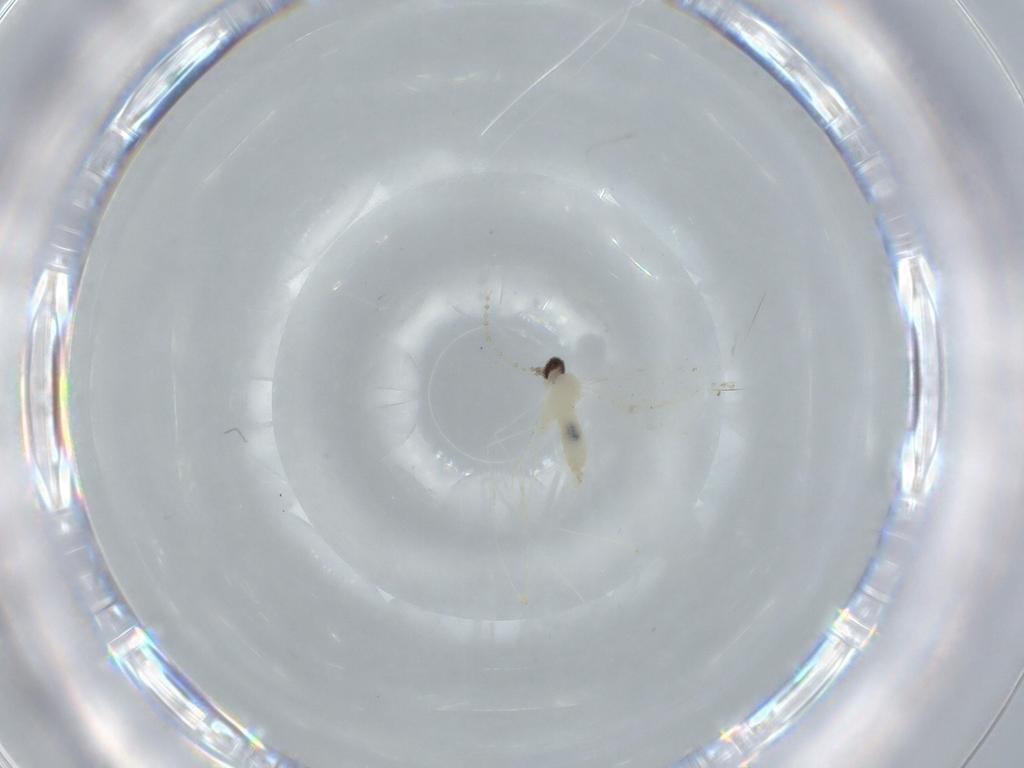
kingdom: Animalia
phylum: Arthropoda
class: Insecta
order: Diptera
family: Cecidomyiidae
